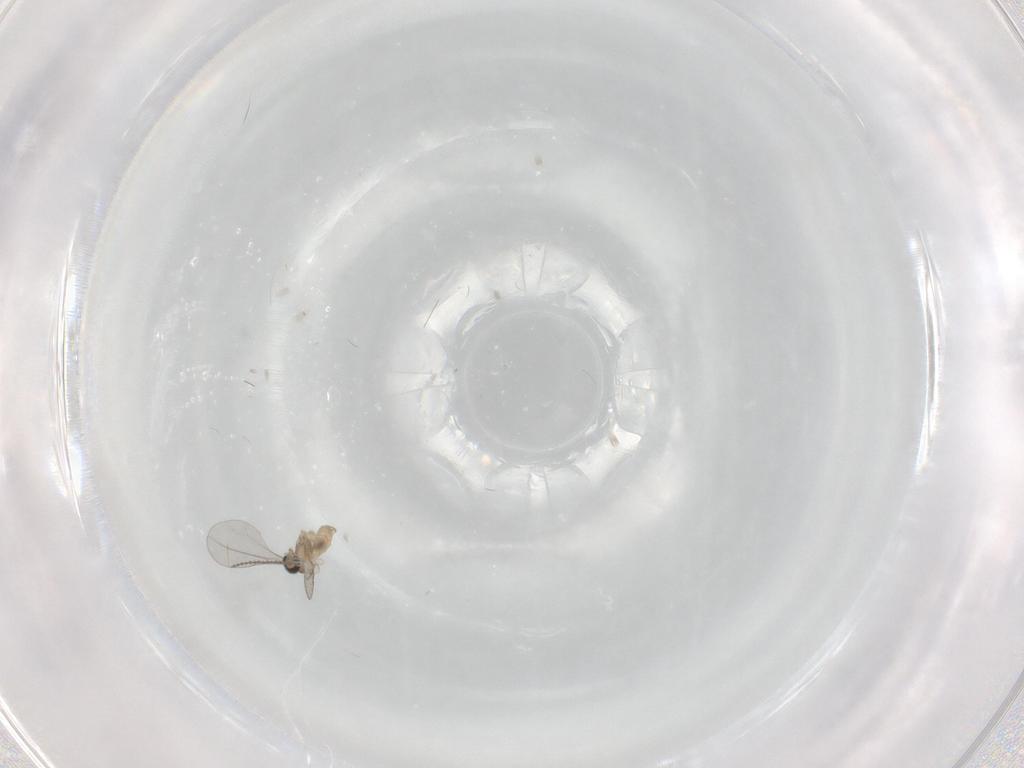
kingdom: Animalia
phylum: Arthropoda
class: Insecta
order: Diptera
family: Cecidomyiidae
